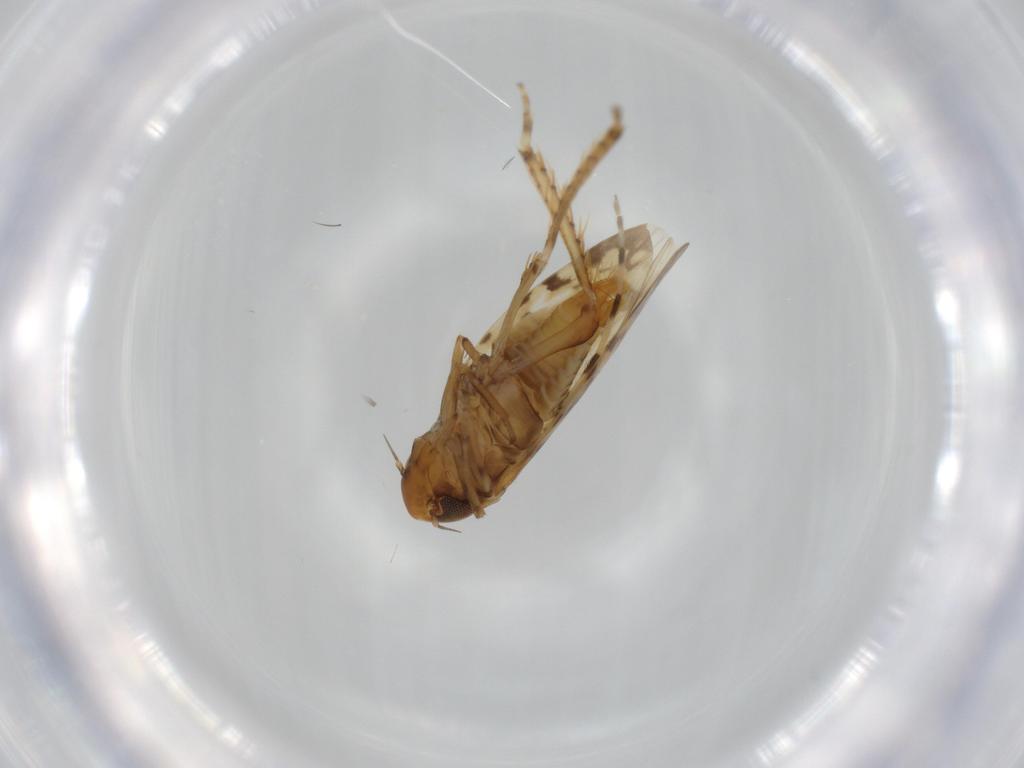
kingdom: Animalia
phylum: Arthropoda
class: Insecta
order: Hemiptera
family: Cicadellidae
